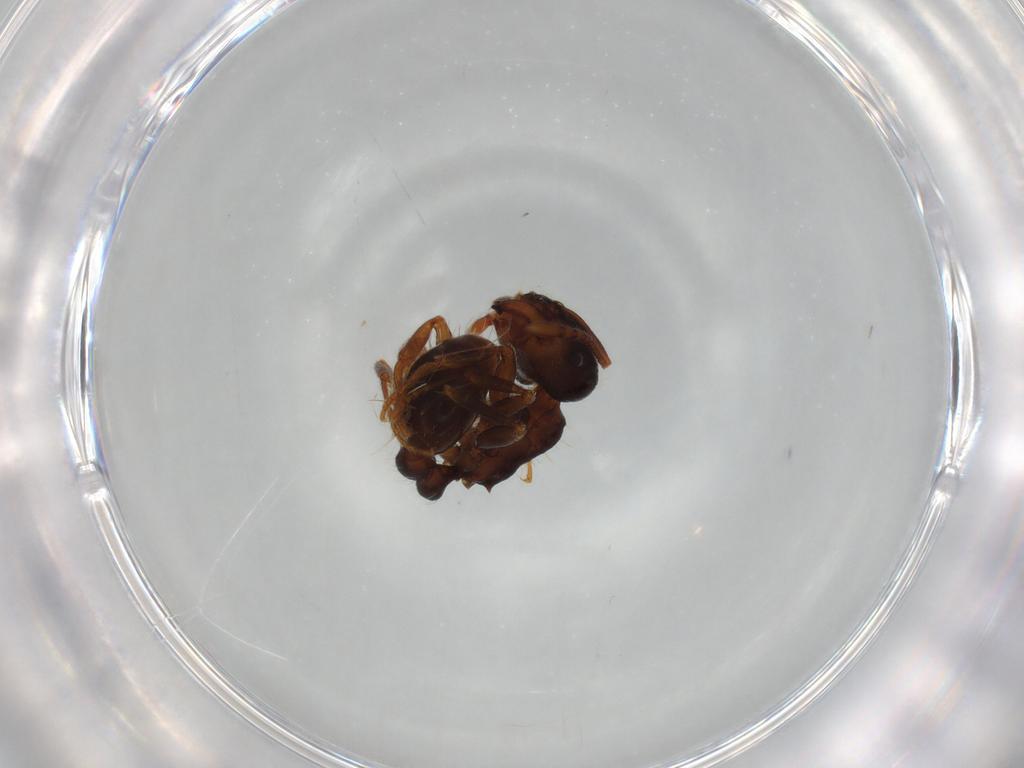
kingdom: Animalia
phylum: Arthropoda
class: Insecta
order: Hymenoptera
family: Formicidae
